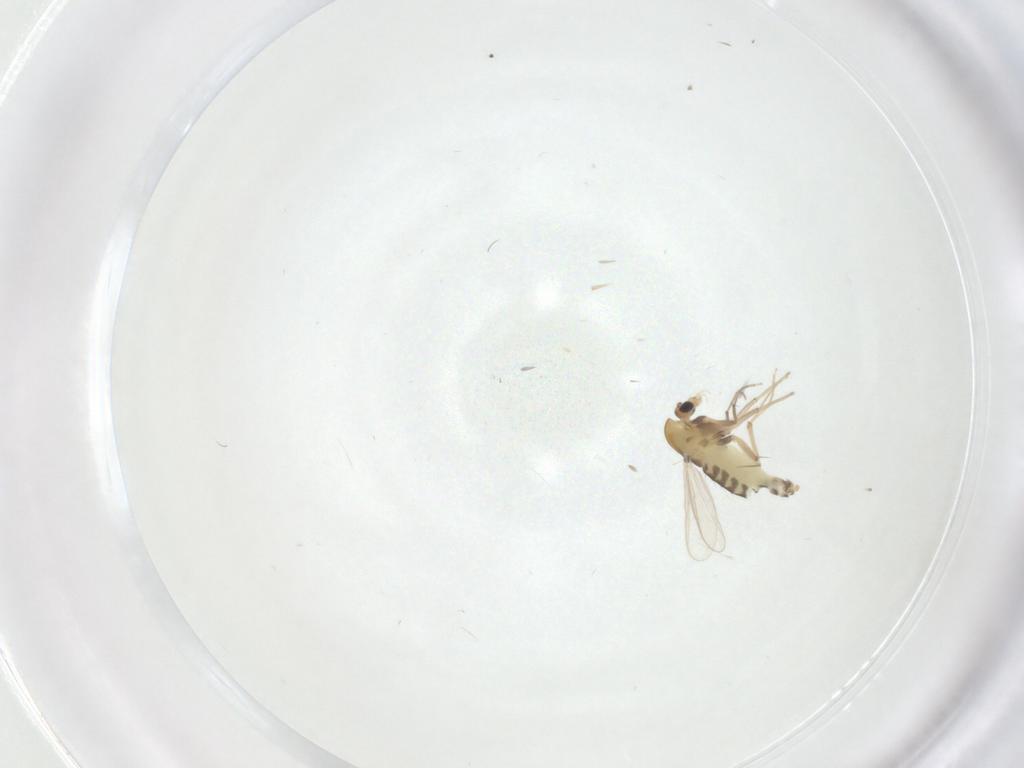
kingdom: Animalia
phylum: Arthropoda
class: Insecta
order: Diptera
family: Chironomidae
